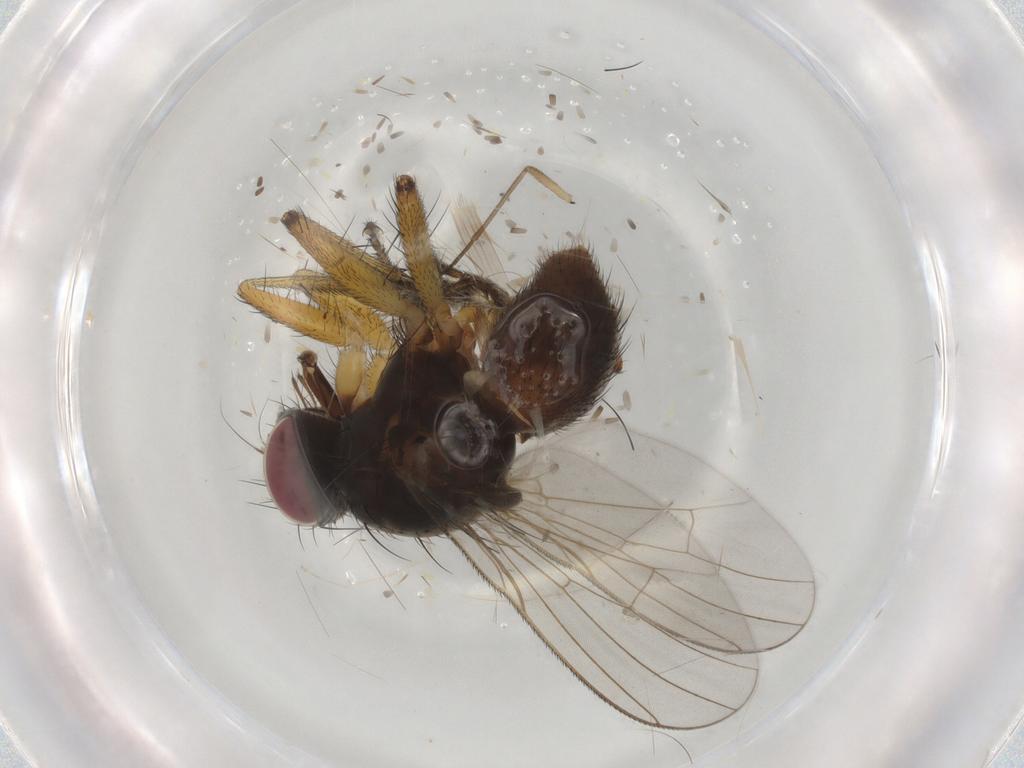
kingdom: Animalia
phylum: Arthropoda
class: Insecta
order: Diptera
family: Muscidae
